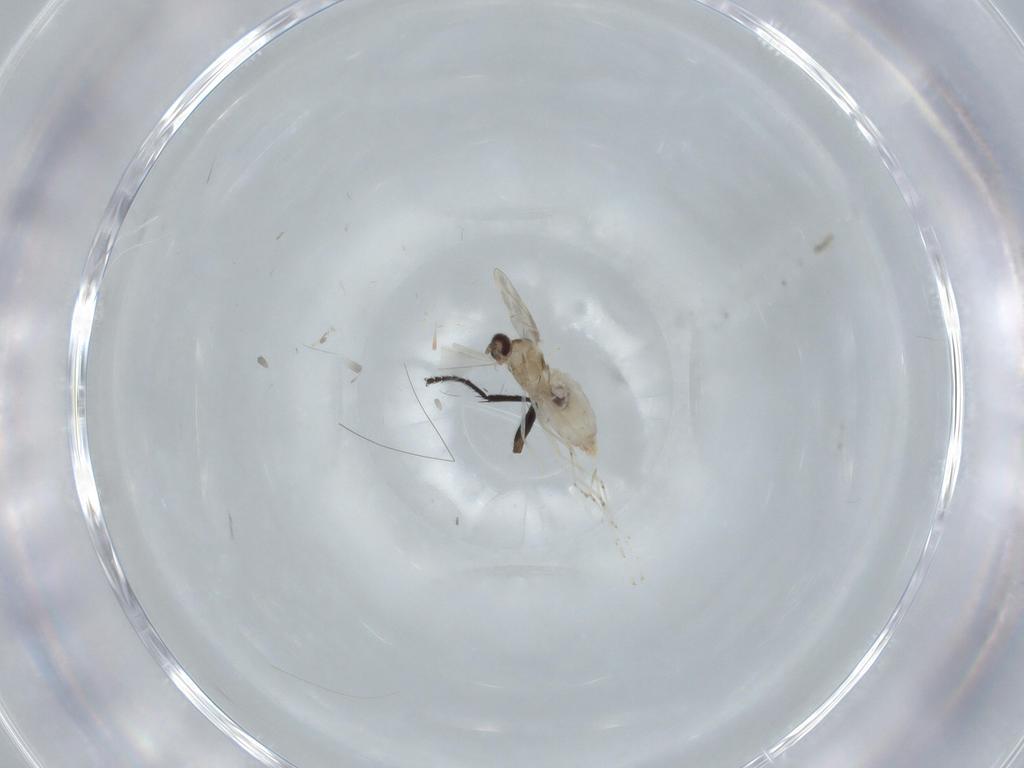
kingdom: Animalia
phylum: Arthropoda
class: Insecta
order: Diptera
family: Cecidomyiidae
